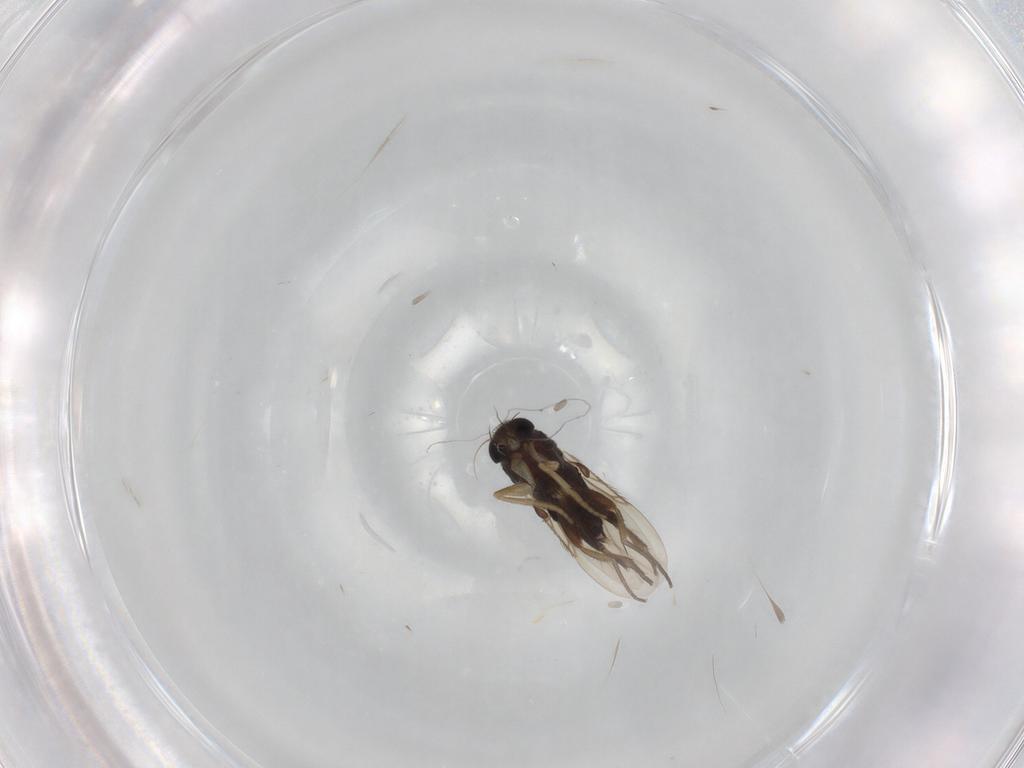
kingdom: Animalia
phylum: Arthropoda
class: Insecta
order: Diptera
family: Phoridae
